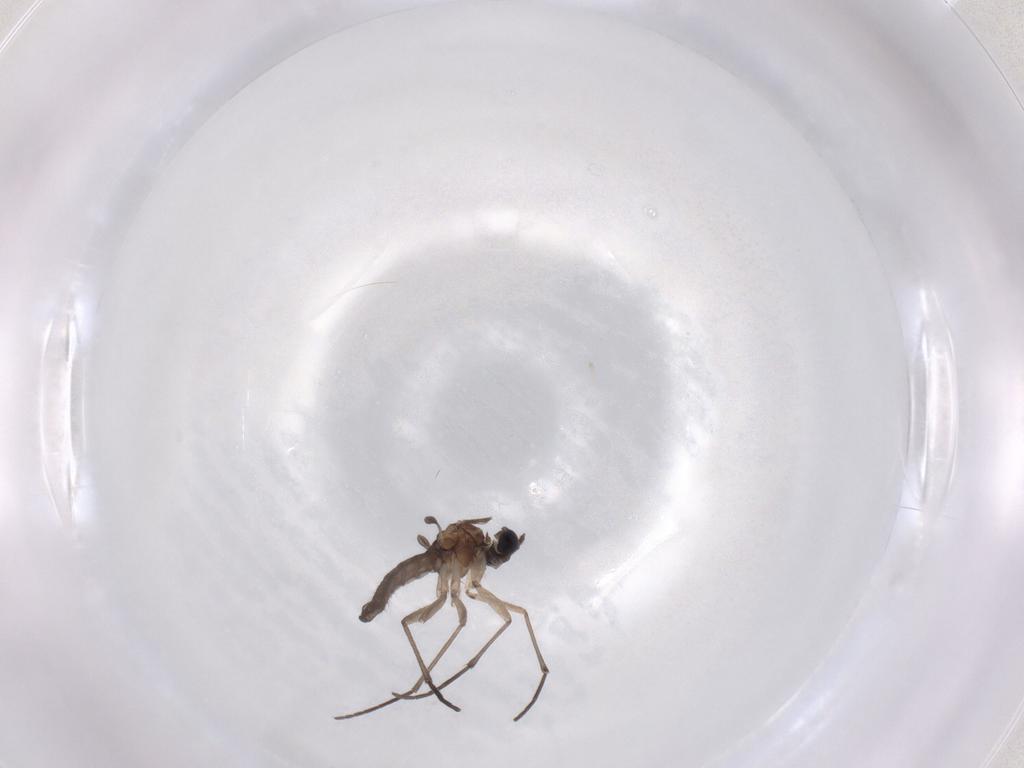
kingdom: Animalia
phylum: Arthropoda
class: Insecta
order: Diptera
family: Sciaridae
